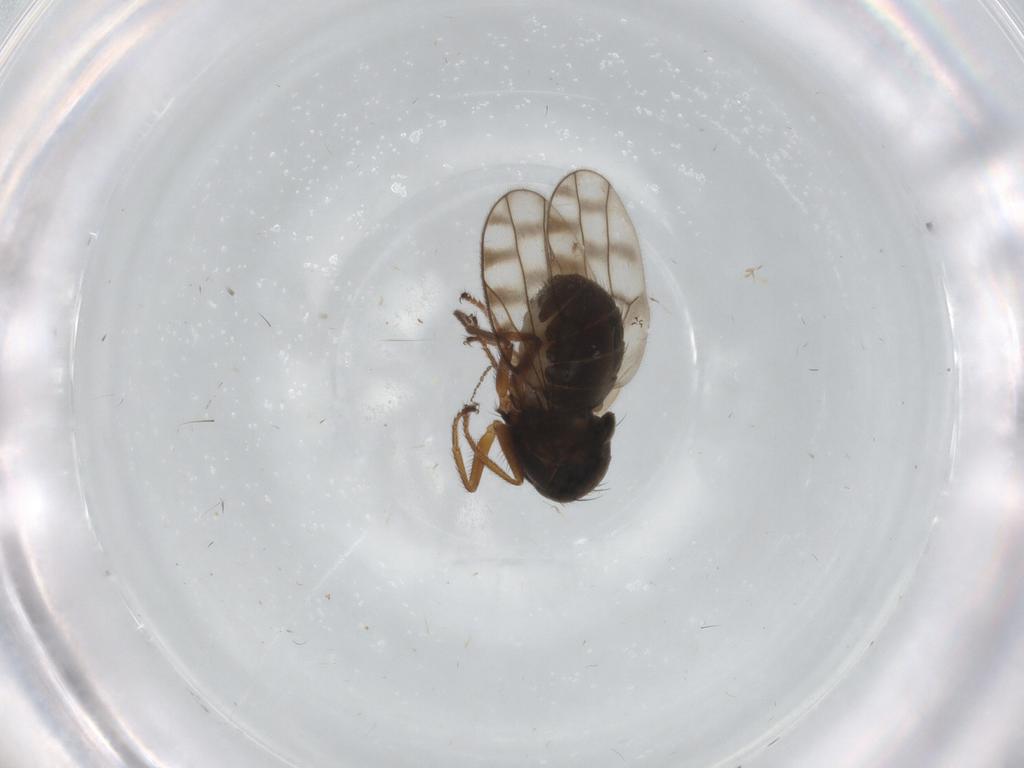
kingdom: Animalia
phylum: Arthropoda
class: Insecta
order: Diptera
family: Ephydridae
